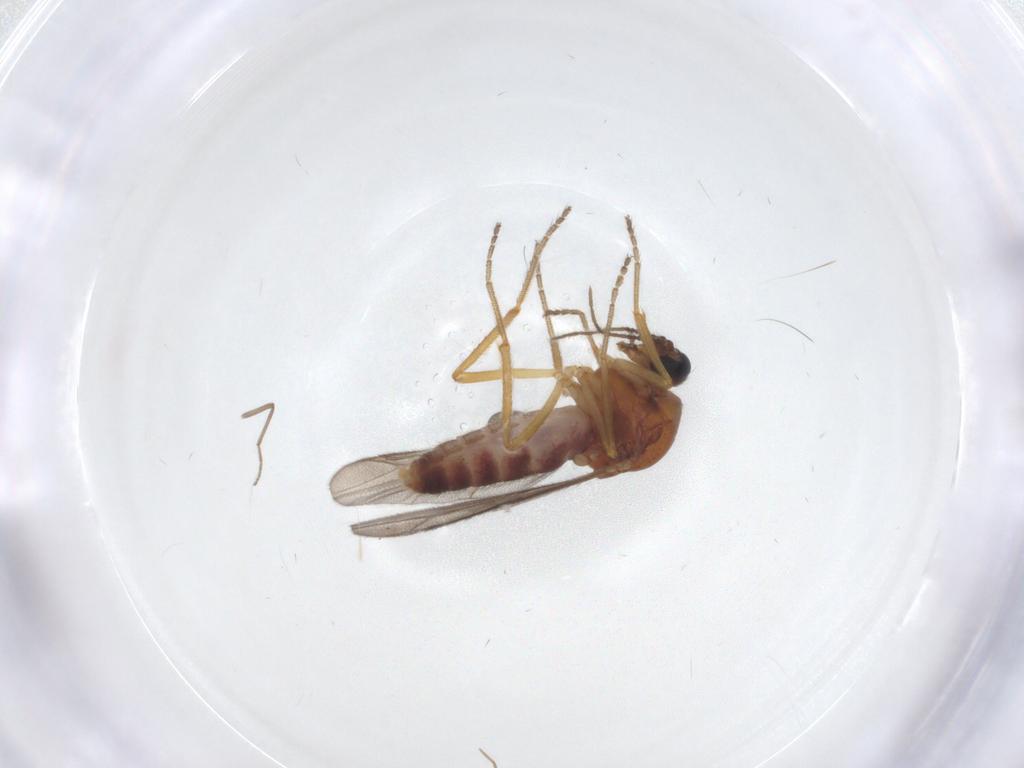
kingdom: Animalia
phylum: Arthropoda
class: Insecta
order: Diptera
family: Ceratopogonidae
